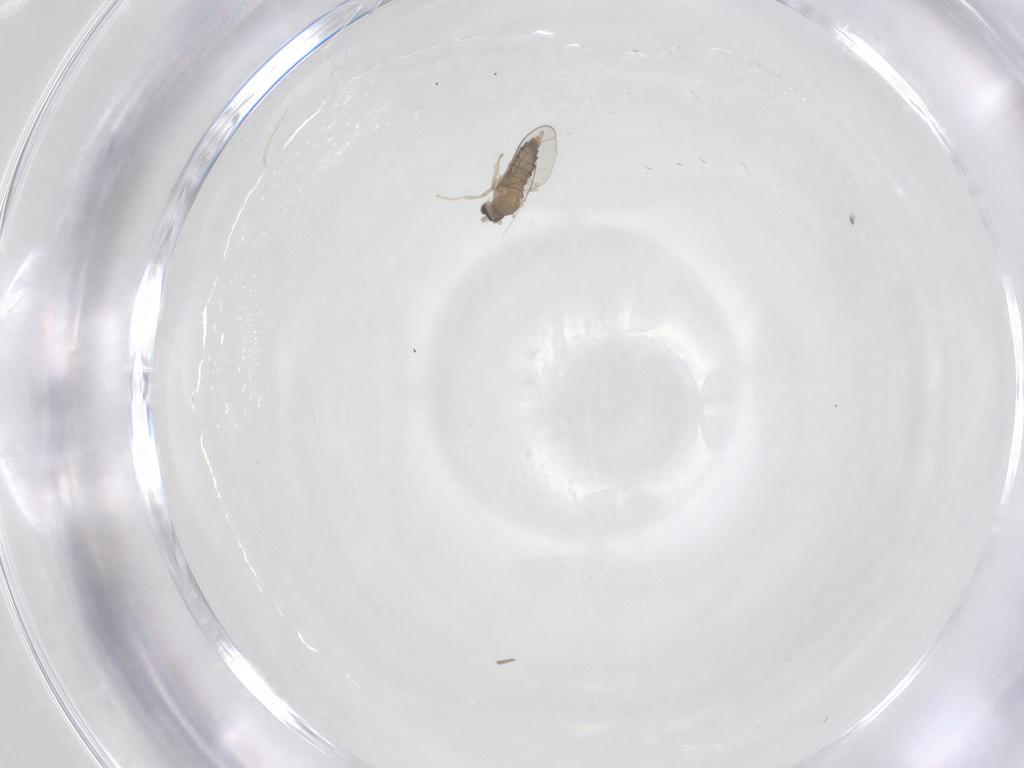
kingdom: Animalia
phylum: Arthropoda
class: Insecta
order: Diptera
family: Cecidomyiidae
